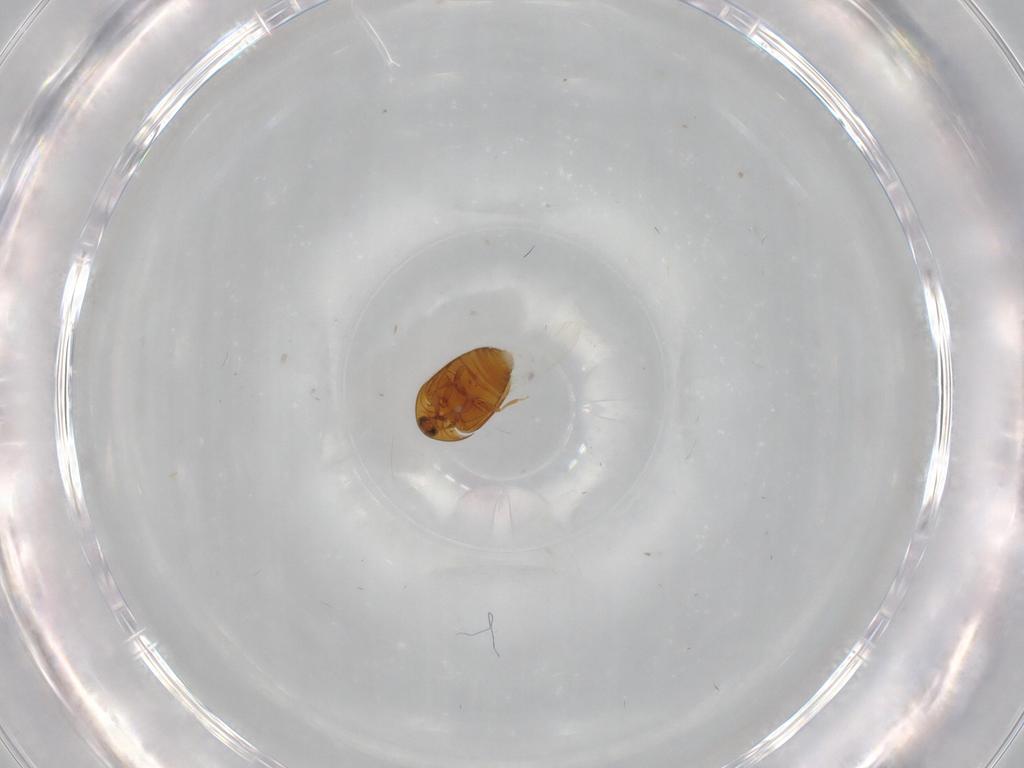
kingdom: Animalia
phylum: Arthropoda
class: Insecta
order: Coleoptera
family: Corylophidae
